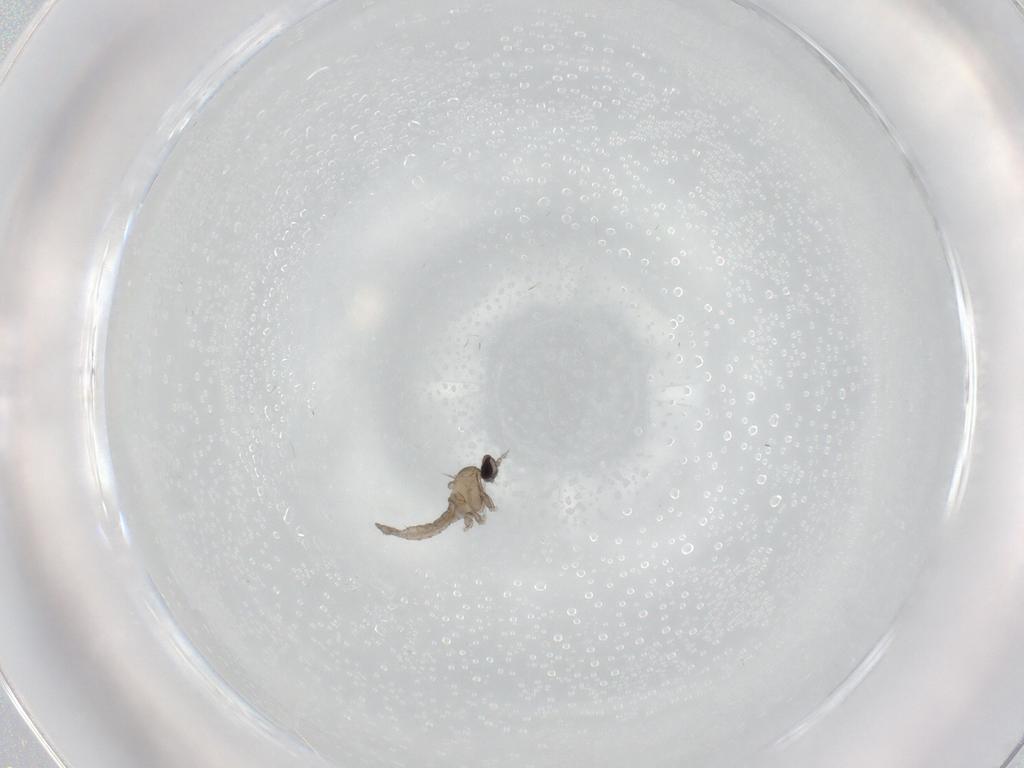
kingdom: Animalia
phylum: Arthropoda
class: Insecta
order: Diptera
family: Cecidomyiidae
